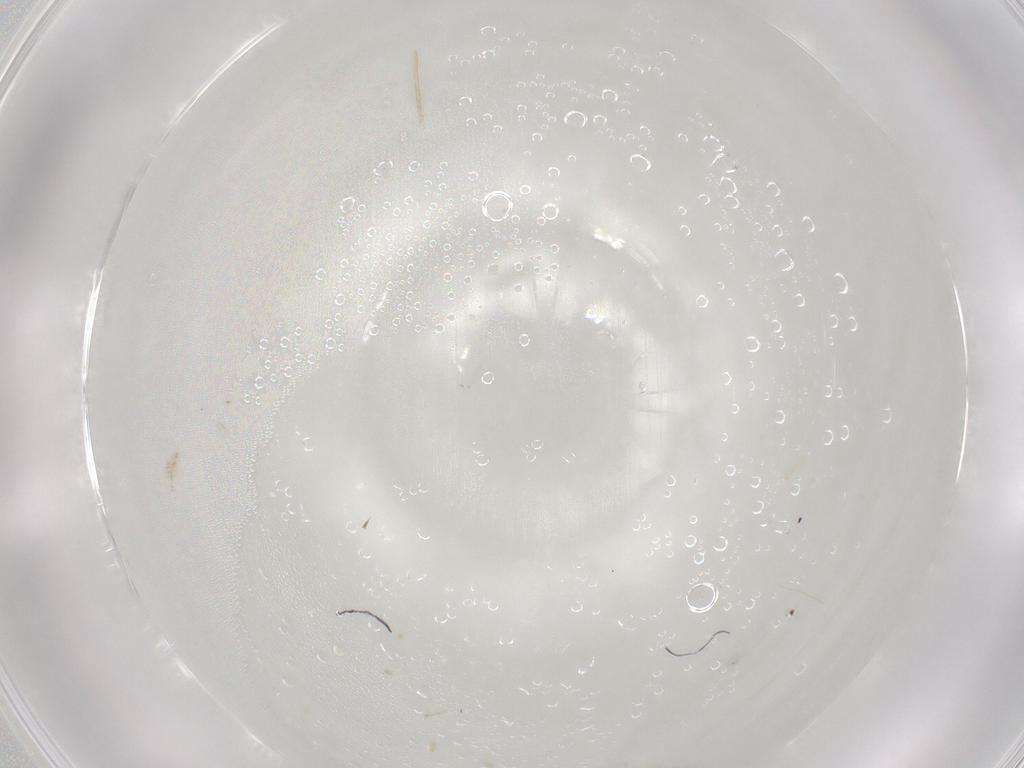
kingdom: Animalia
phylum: Arthropoda
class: Insecta
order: Hymenoptera
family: Scelionidae
